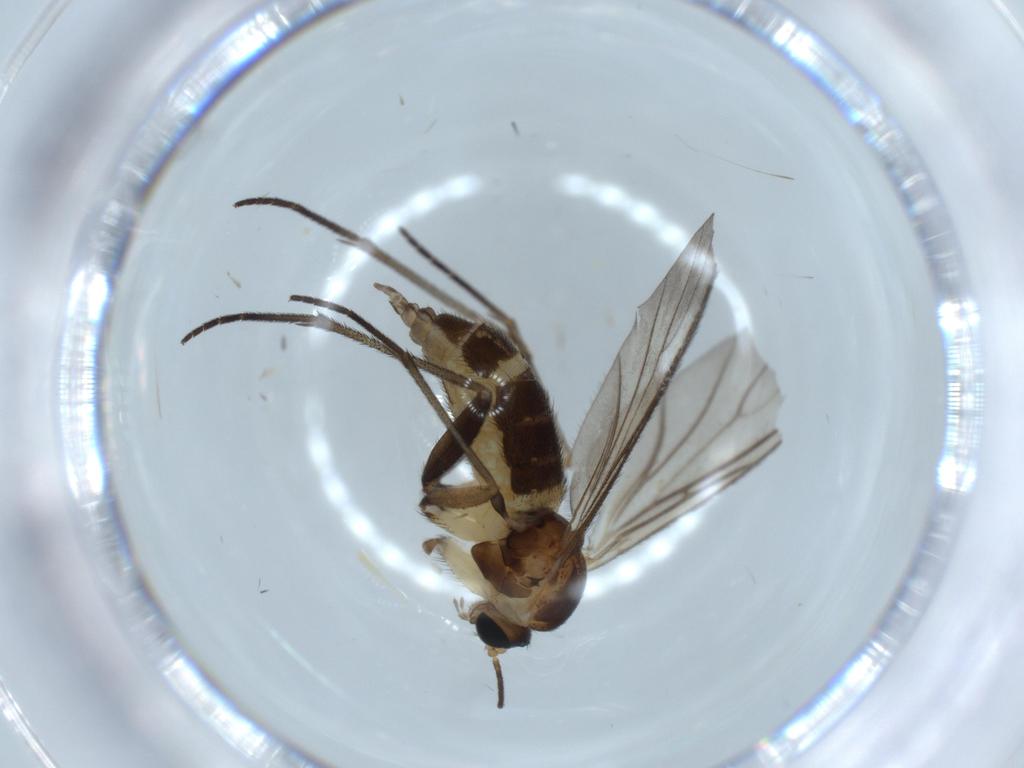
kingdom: Animalia
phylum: Arthropoda
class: Insecta
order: Diptera
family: Sciaridae
